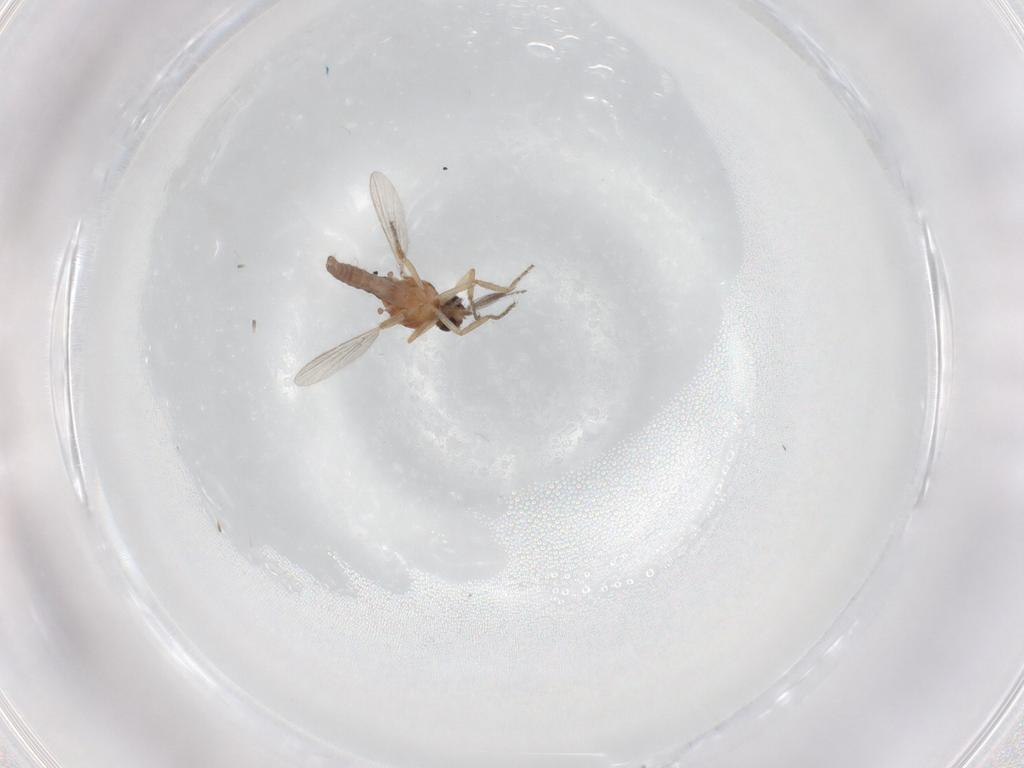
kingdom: Animalia
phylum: Arthropoda
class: Insecta
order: Diptera
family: Ceratopogonidae
